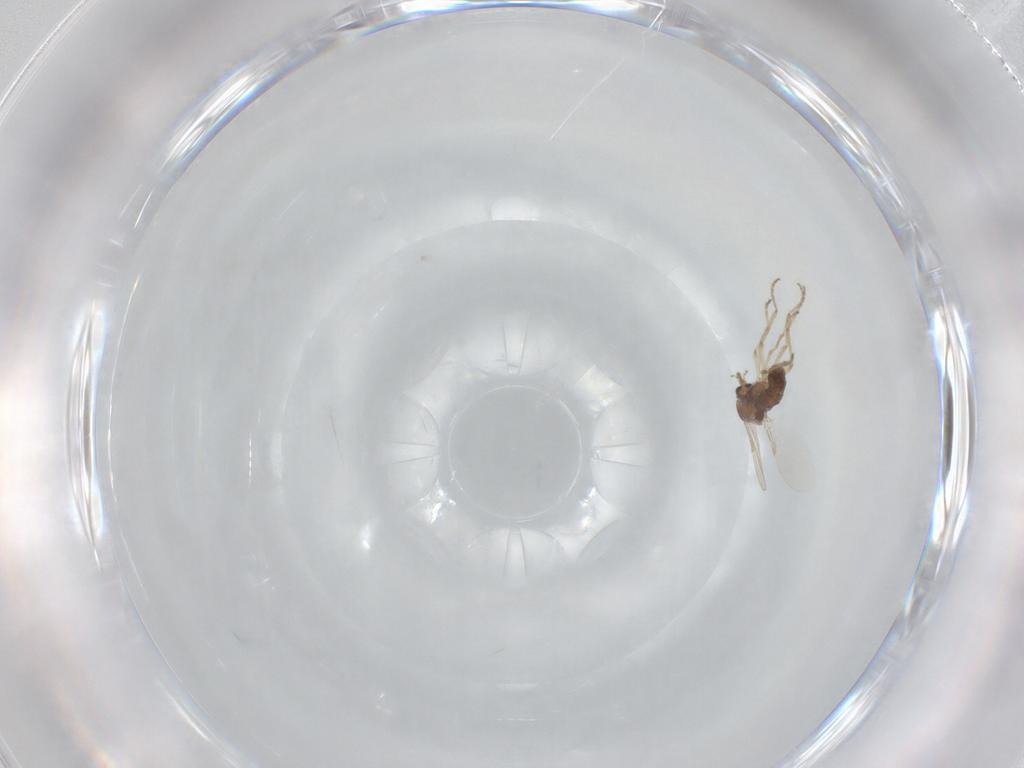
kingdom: Animalia
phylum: Arthropoda
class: Insecta
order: Diptera
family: Ceratopogonidae
